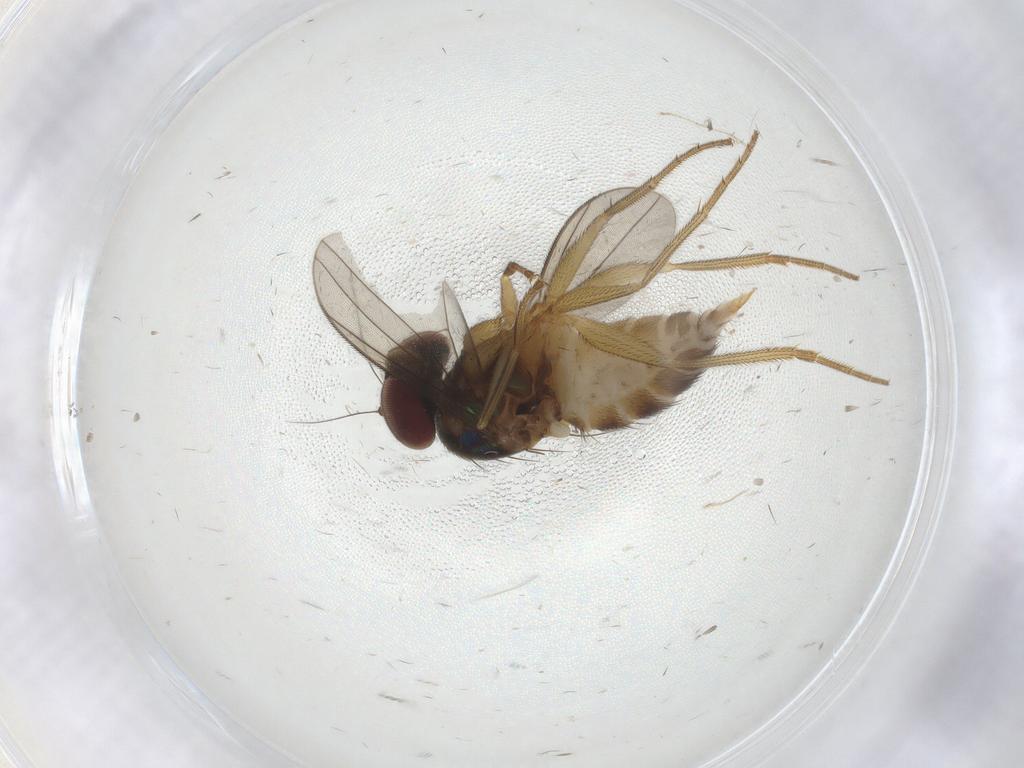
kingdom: Animalia
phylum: Arthropoda
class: Insecta
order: Diptera
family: Dolichopodidae
